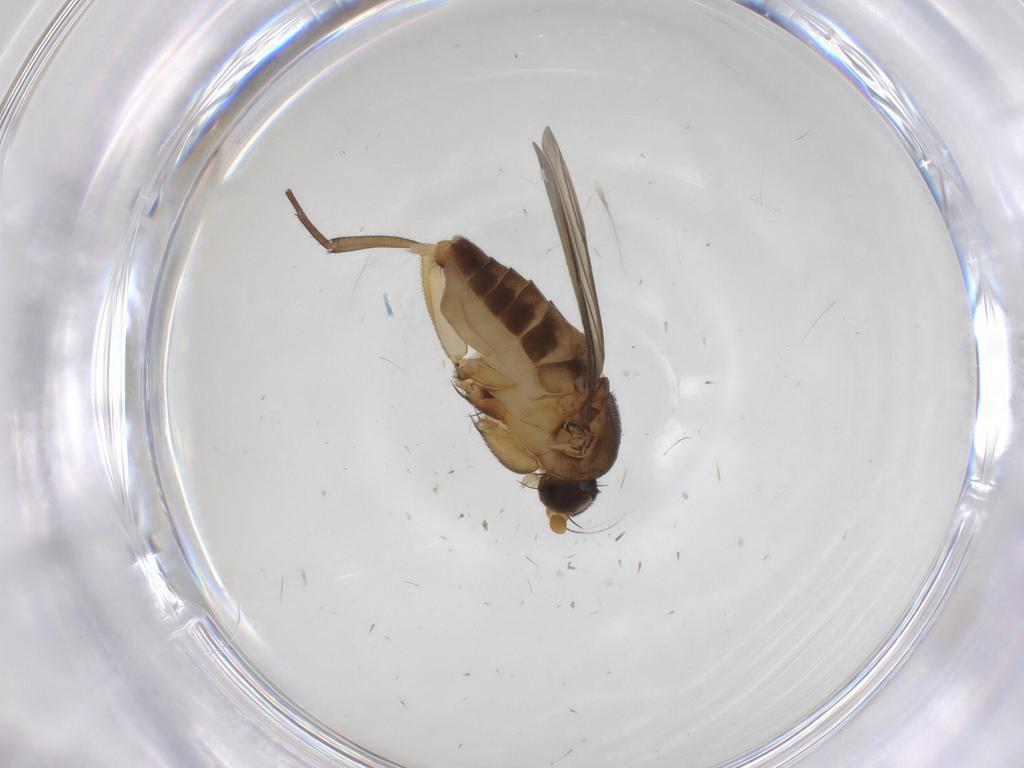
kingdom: Animalia
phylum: Arthropoda
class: Insecta
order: Diptera
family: Phoridae
